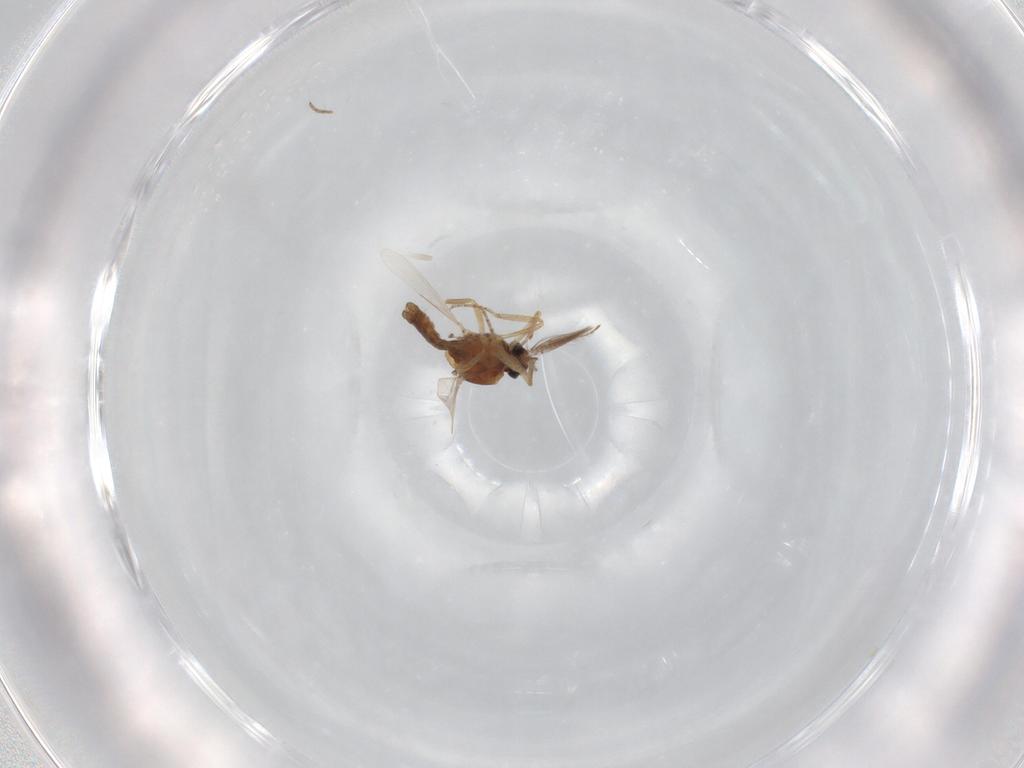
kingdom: Animalia
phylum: Arthropoda
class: Insecta
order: Diptera
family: Ceratopogonidae
